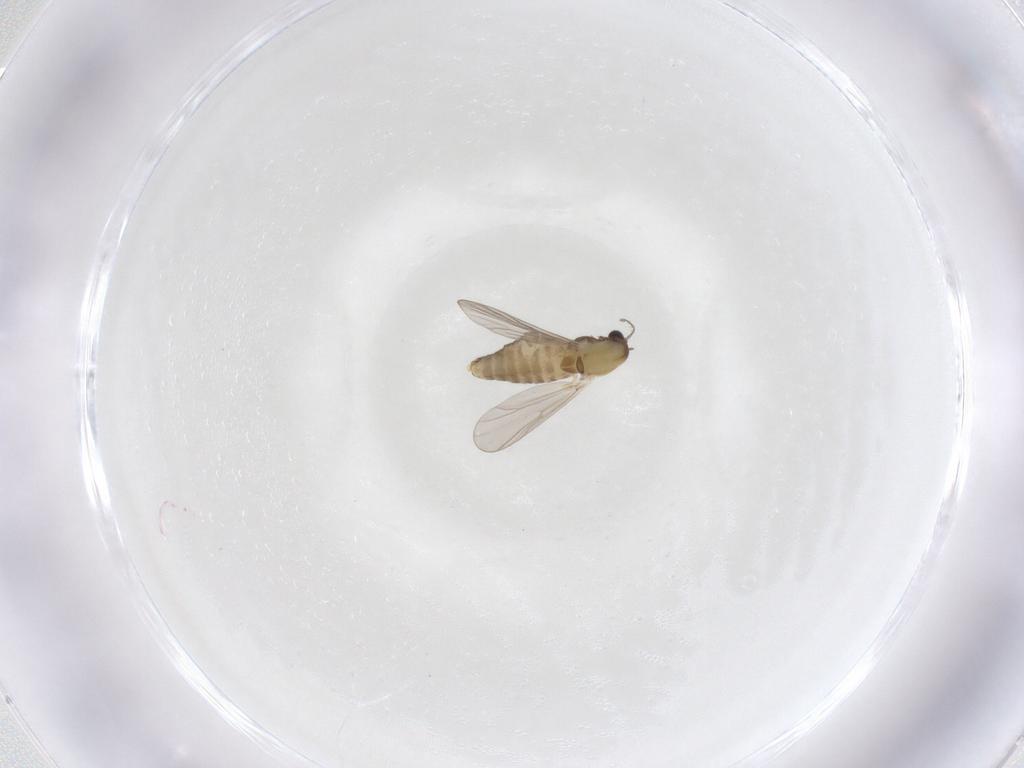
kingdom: Animalia
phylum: Arthropoda
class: Insecta
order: Diptera
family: Chironomidae
